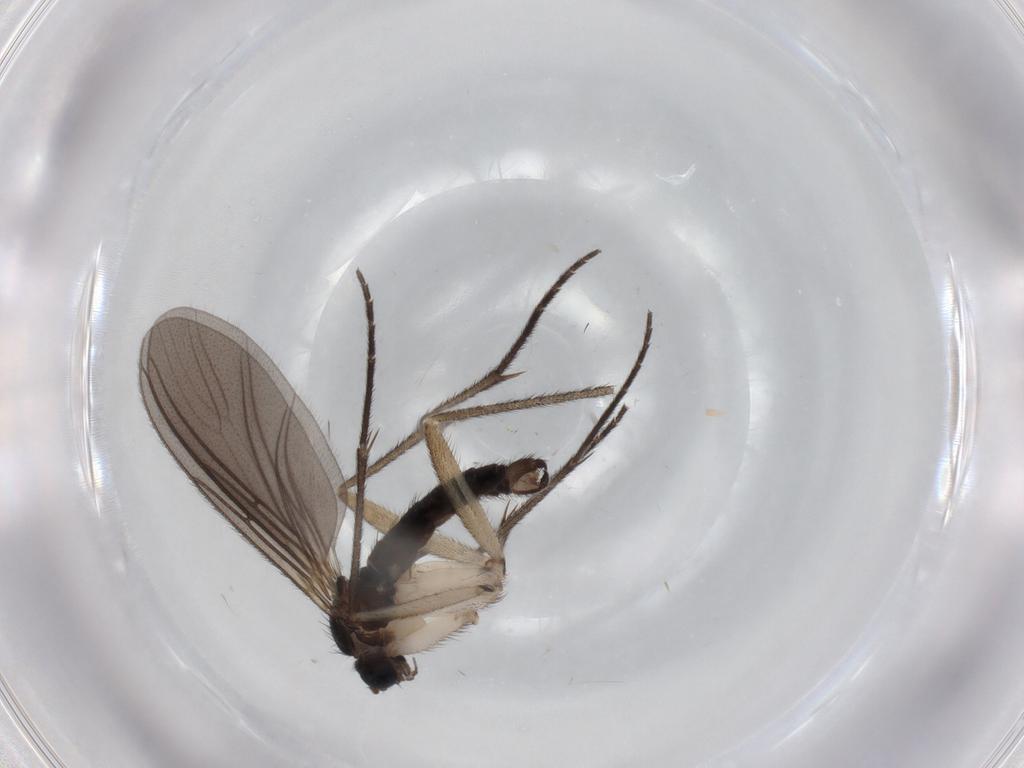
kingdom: Animalia
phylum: Arthropoda
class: Insecta
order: Diptera
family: Sciaridae
